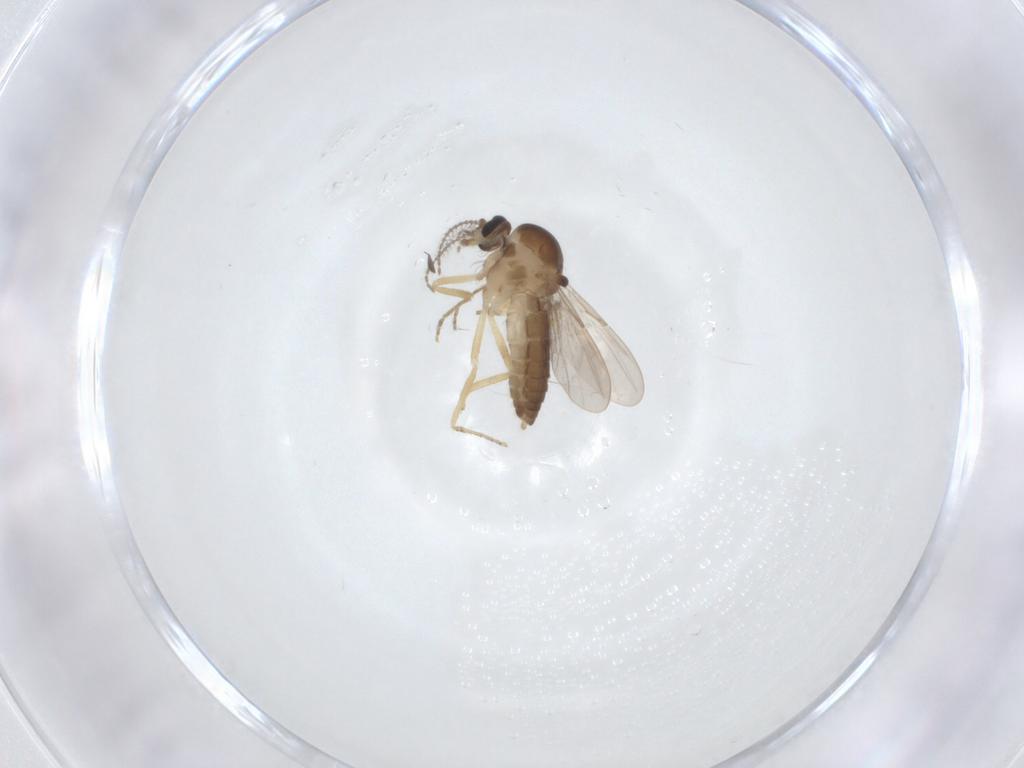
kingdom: Animalia
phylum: Arthropoda
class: Insecta
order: Diptera
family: Ceratopogonidae
